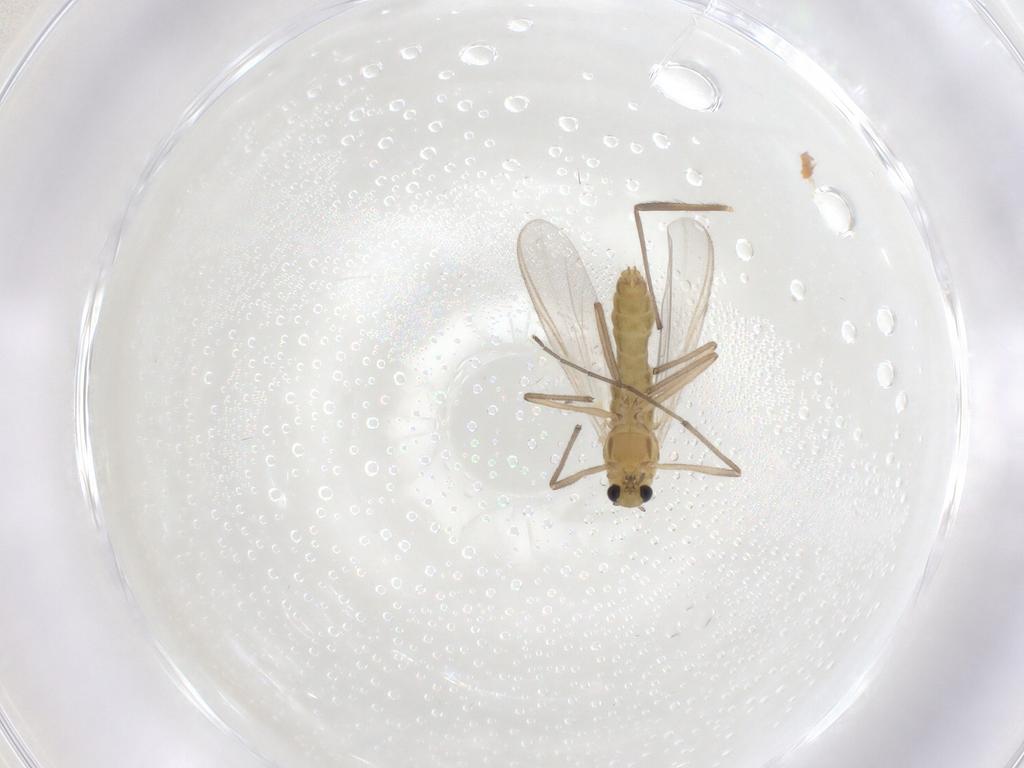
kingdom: Animalia
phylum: Arthropoda
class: Insecta
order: Diptera
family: Chironomidae
